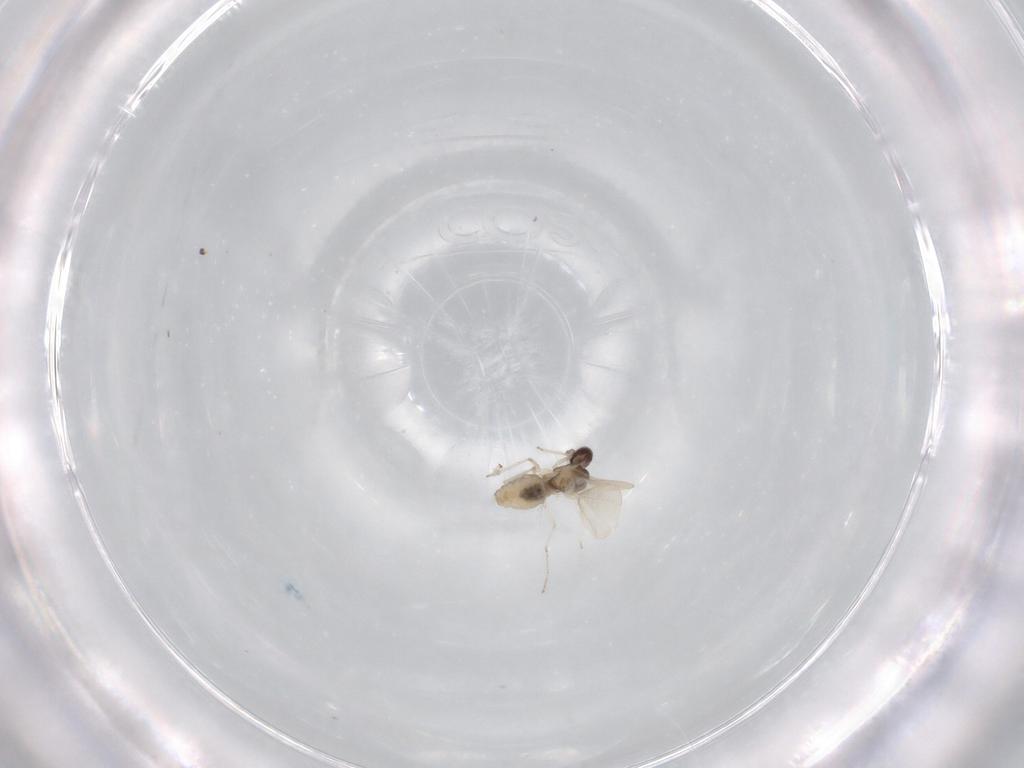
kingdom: Animalia
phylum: Arthropoda
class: Insecta
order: Diptera
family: Cecidomyiidae
